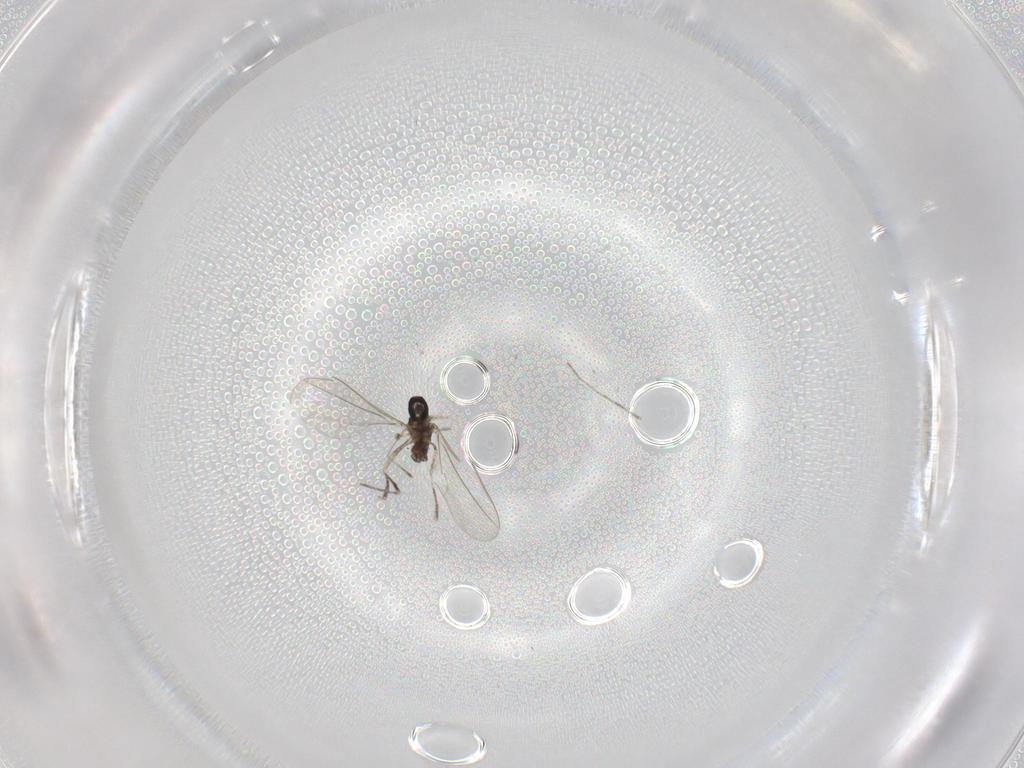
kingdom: Animalia
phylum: Arthropoda
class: Insecta
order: Diptera
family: Cecidomyiidae
